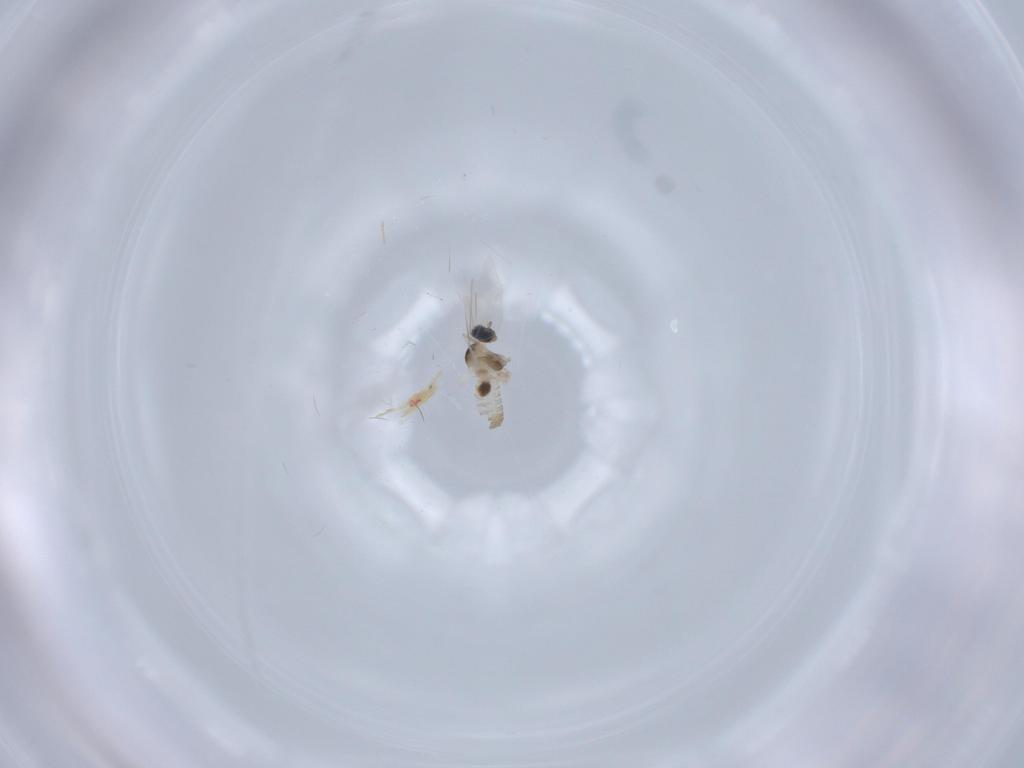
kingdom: Animalia
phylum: Arthropoda
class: Insecta
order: Diptera
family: Cecidomyiidae
